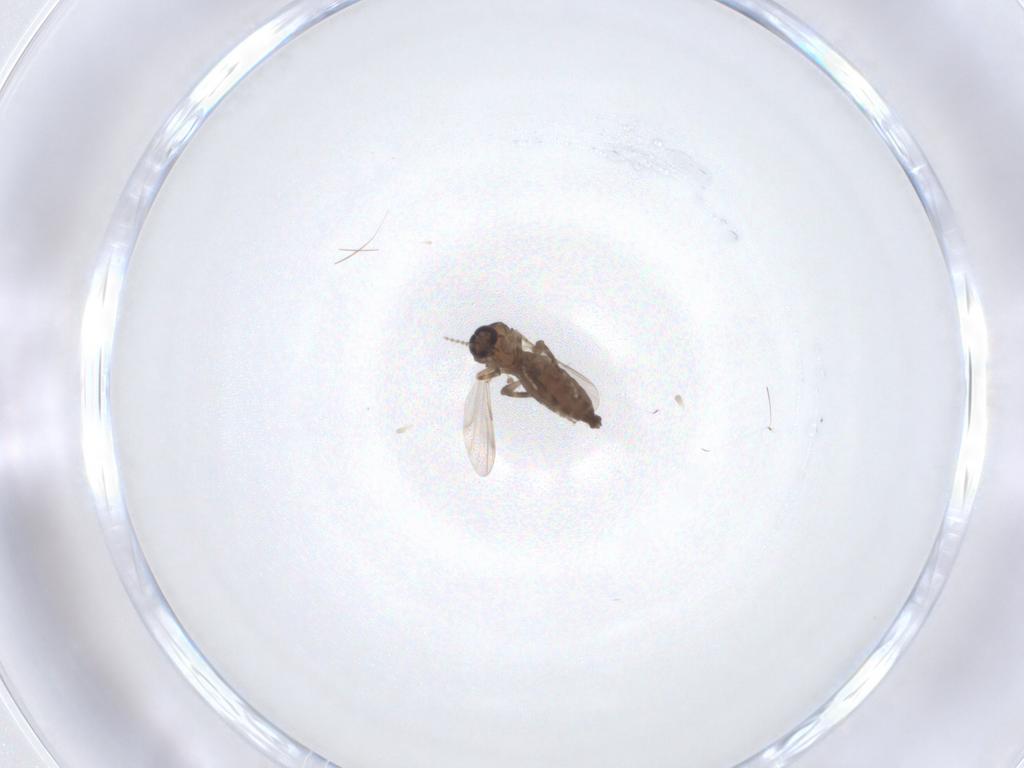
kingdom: Animalia
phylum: Arthropoda
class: Insecta
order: Diptera
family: Ceratopogonidae
